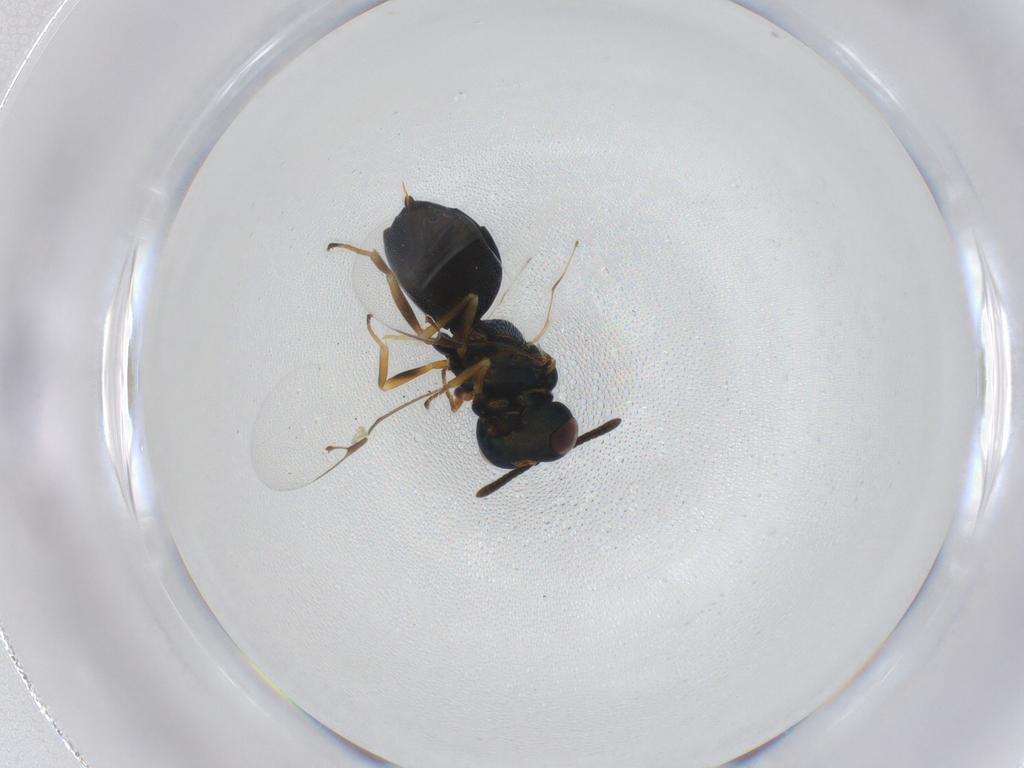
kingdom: Animalia
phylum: Arthropoda
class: Insecta
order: Hymenoptera
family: Pteromalidae
